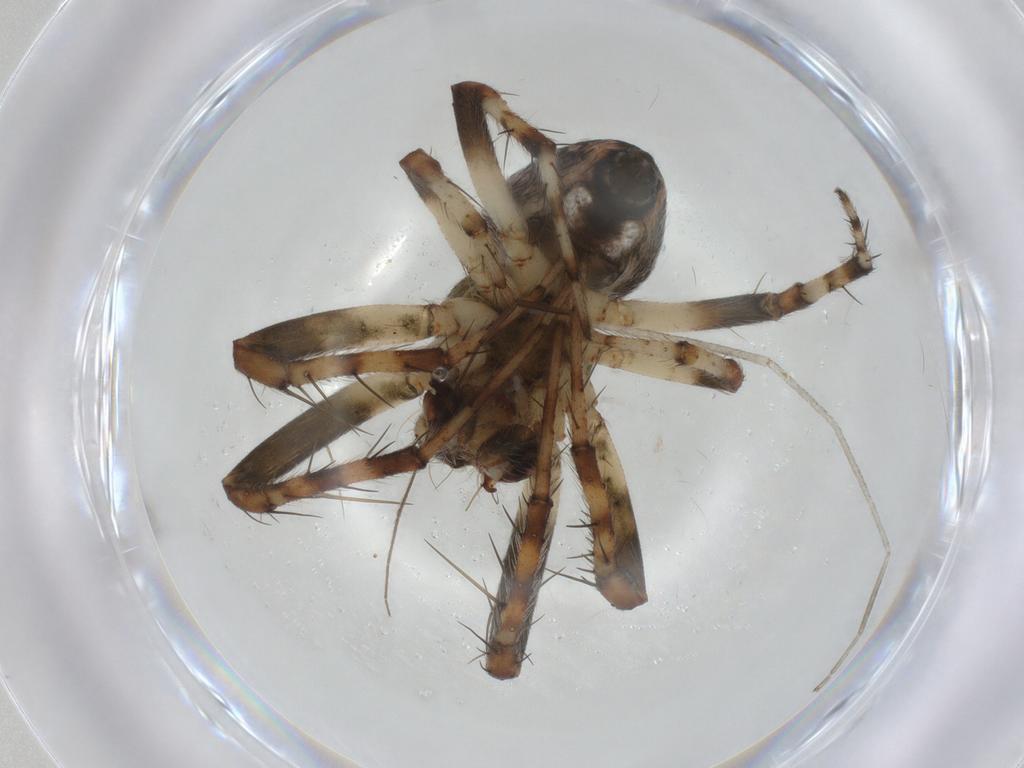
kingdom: Animalia
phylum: Arthropoda
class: Arachnida
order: Araneae
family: Araneidae
